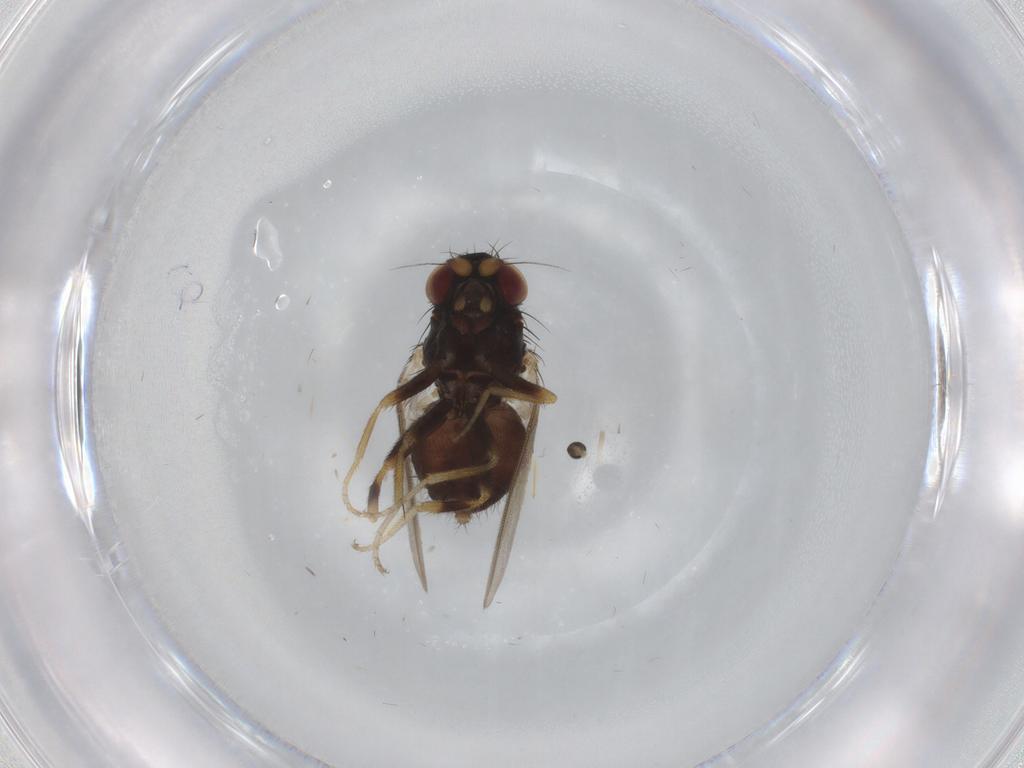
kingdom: Animalia
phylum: Arthropoda
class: Insecta
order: Diptera
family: Milichiidae
